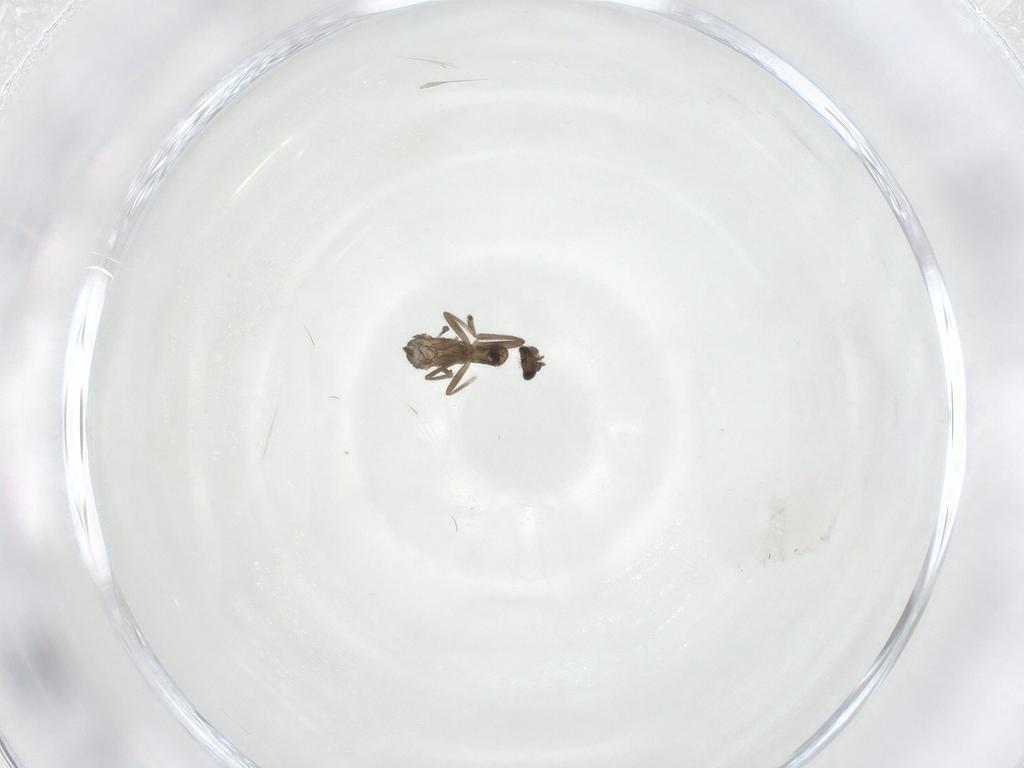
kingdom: Animalia
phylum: Arthropoda
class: Insecta
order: Diptera
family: Phoridae
